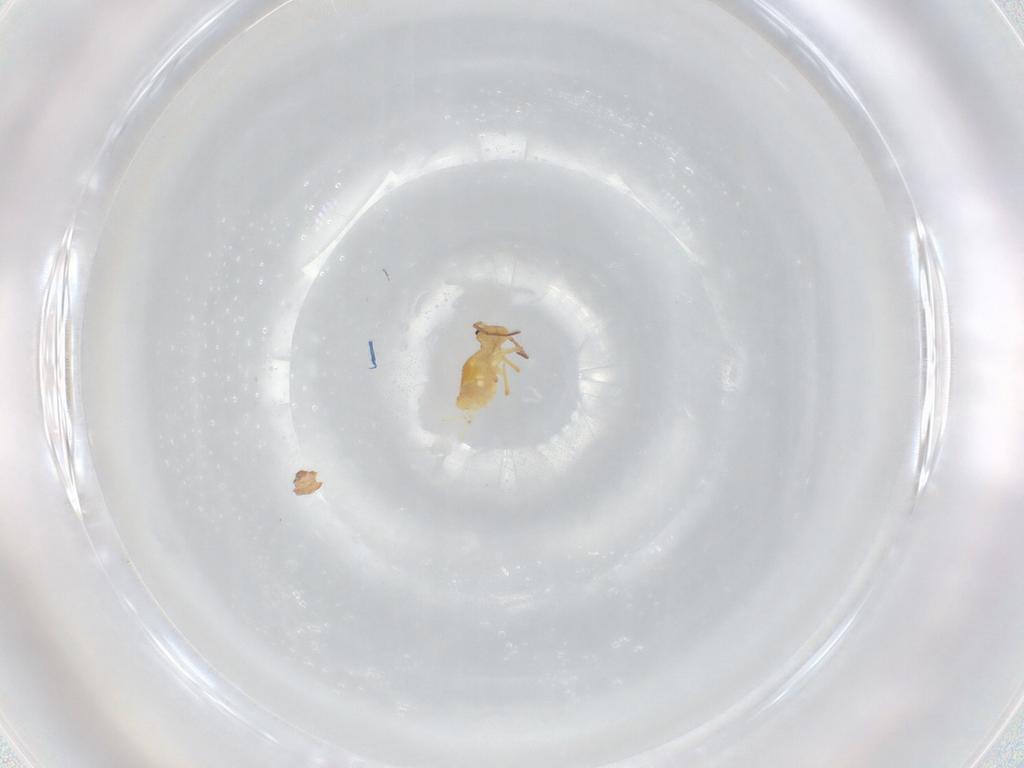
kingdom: Animalia
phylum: Arthropoda
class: Collembola
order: Symphypleona
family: Bourletiellidae
